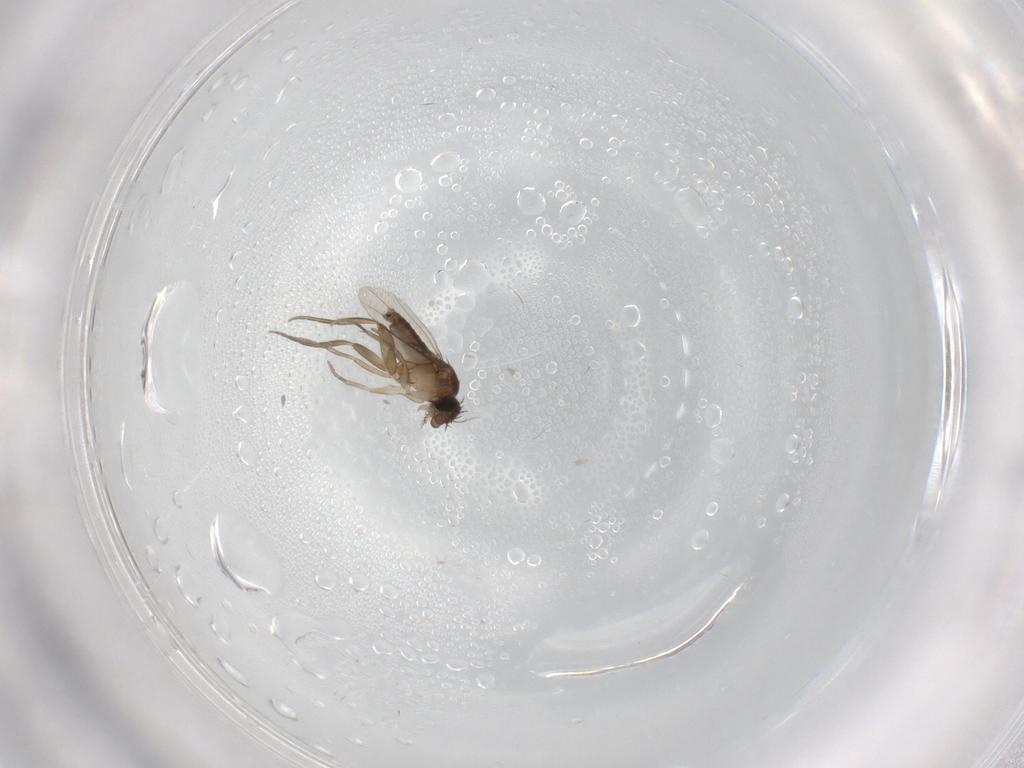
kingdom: Animalia
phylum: Arthropoda
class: Insecta
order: Diptera
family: Phoridae
